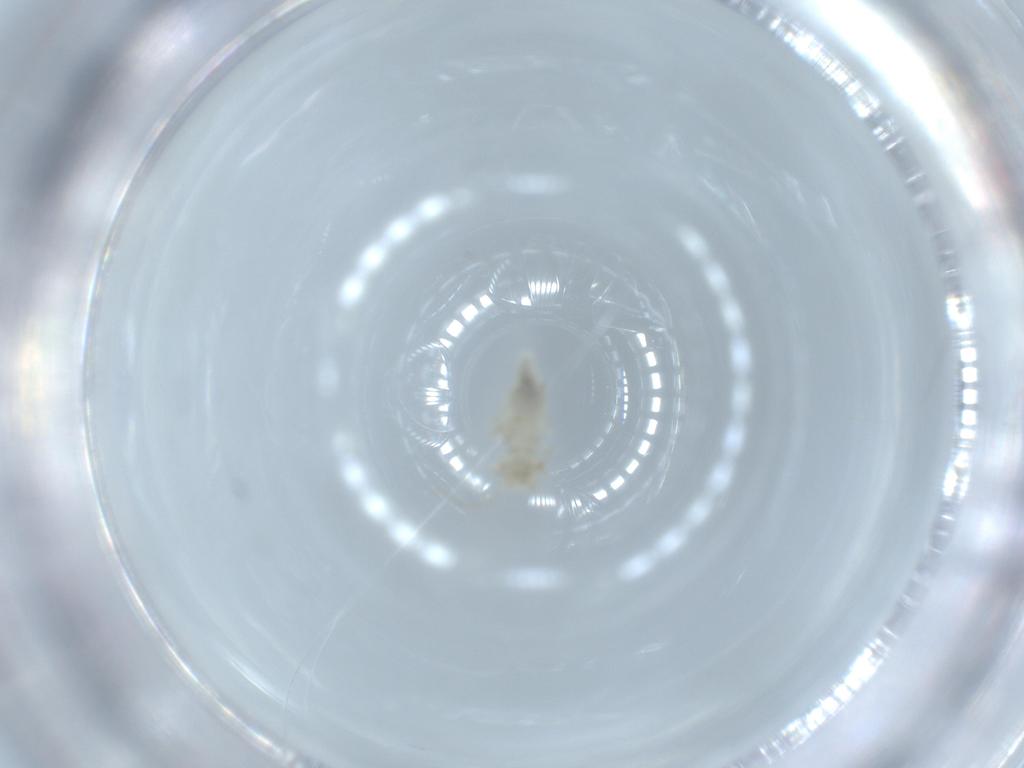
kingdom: Animalia
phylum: Arthropoda
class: Insecta
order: Psocodea
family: Caeciliusidae
